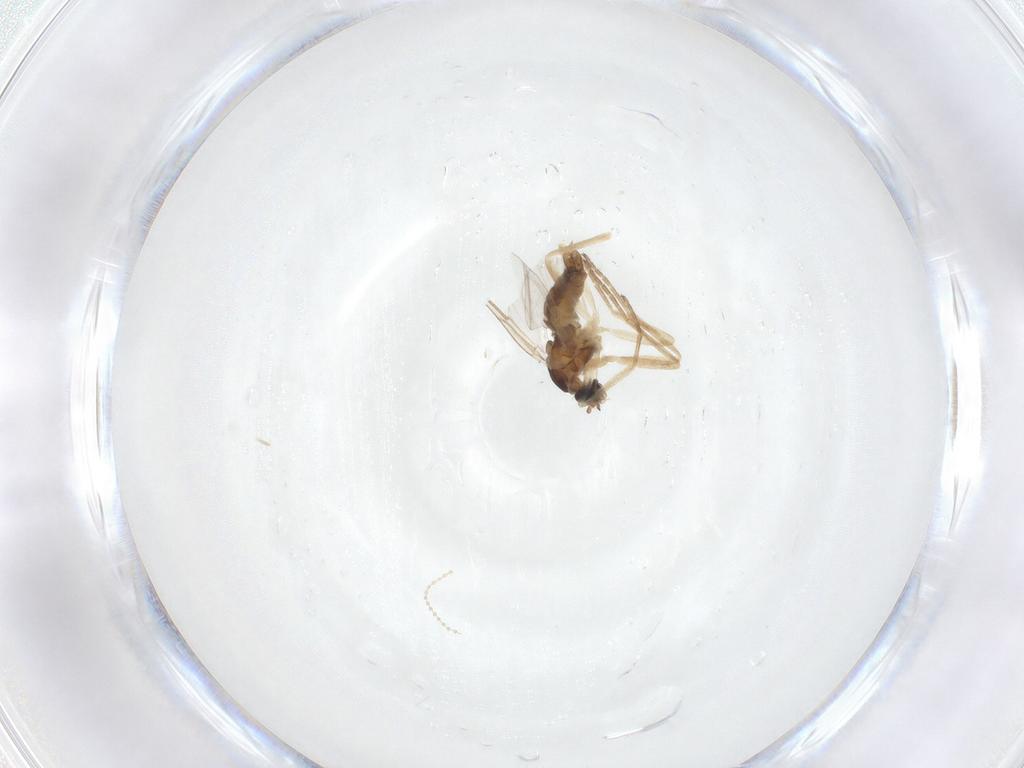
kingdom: Animalia
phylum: Arthropoda
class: Insecta
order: Diptera
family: Cecidomyiidae
